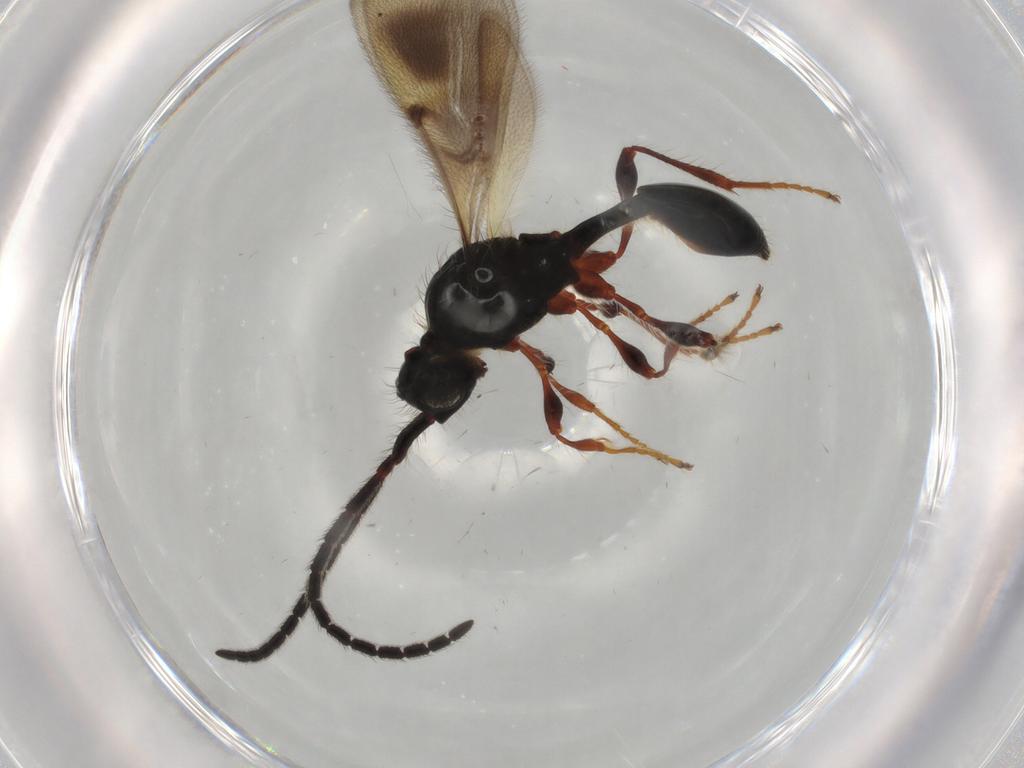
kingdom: Animalia
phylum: Arthropoda
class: Insecta
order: Hymenoptera
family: Diapriidae
